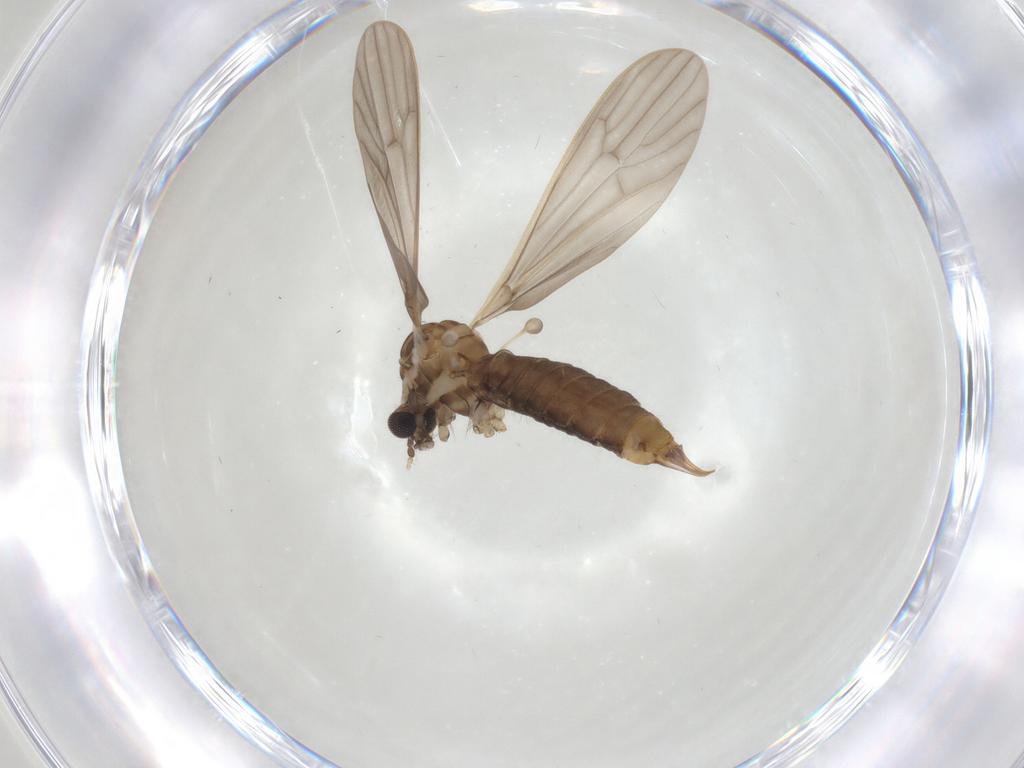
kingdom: Animalia
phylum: Arthropoda
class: Insecta
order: Diptera
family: Limoniidae
